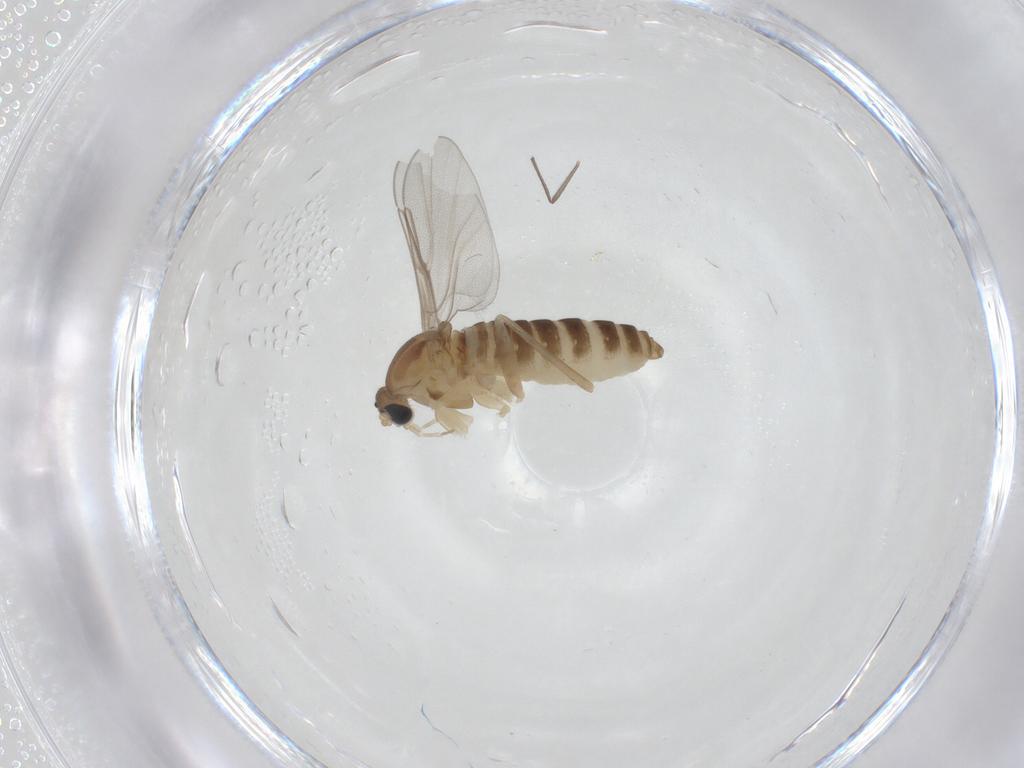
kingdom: Animalia
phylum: Arthropoda
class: Insecta
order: Diptera
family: Cecidomyiidae
